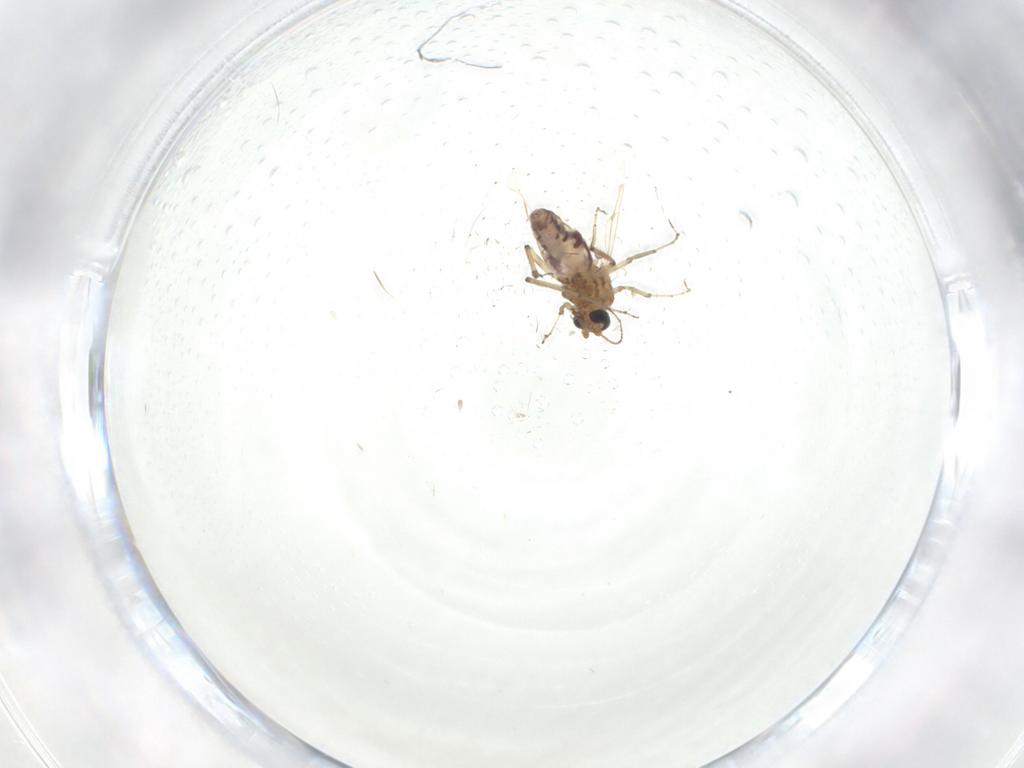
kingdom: Animalia
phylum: Arthropoda
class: Insecta
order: Diptera
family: Ceratopogonidae
